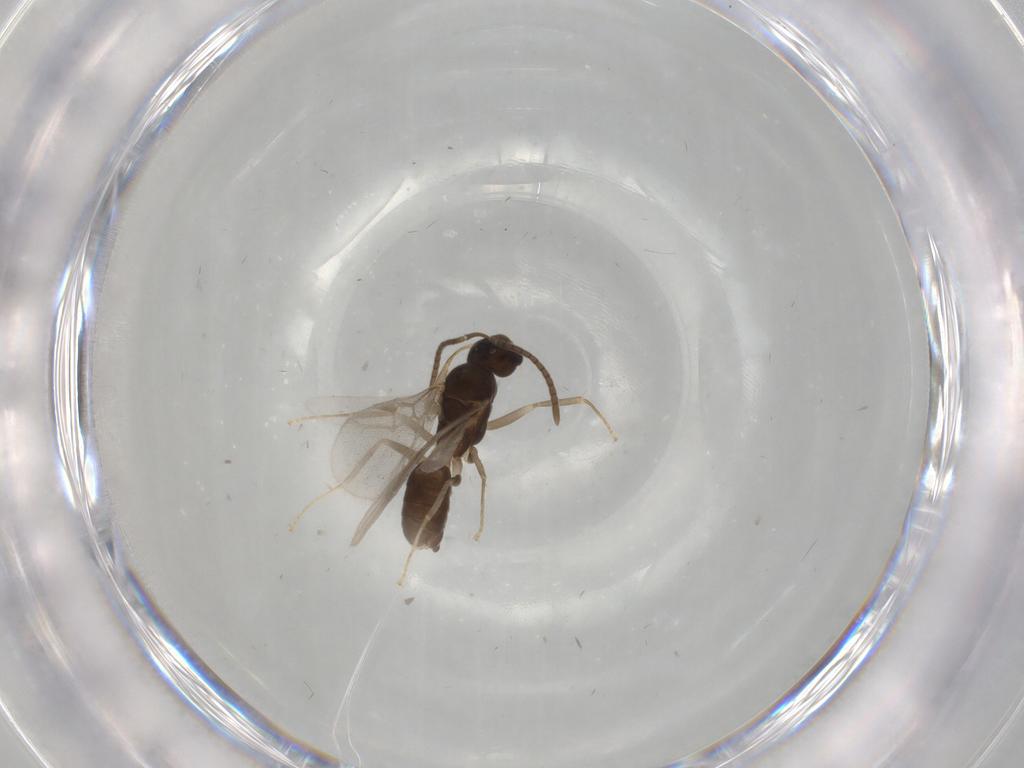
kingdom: Animalia
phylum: Arthropoda
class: Insecta
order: Hymenoptera
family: Formicidae
